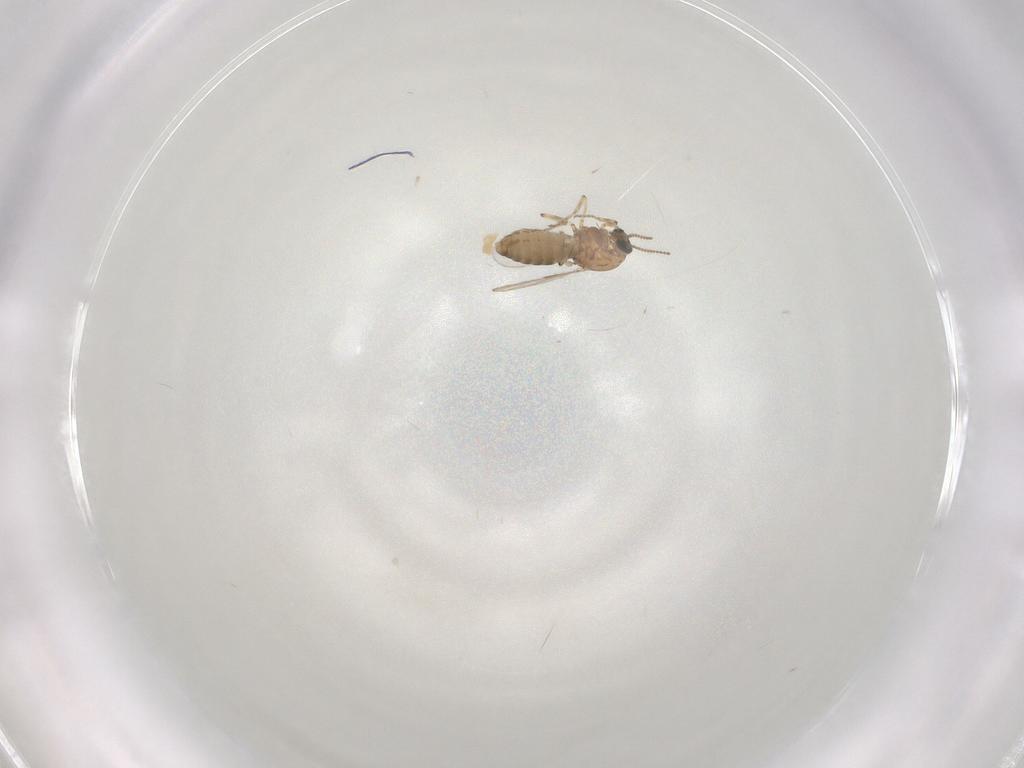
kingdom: Animalia
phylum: Arthropoda
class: Insecta
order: Diptera
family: Ceratopogonidae
